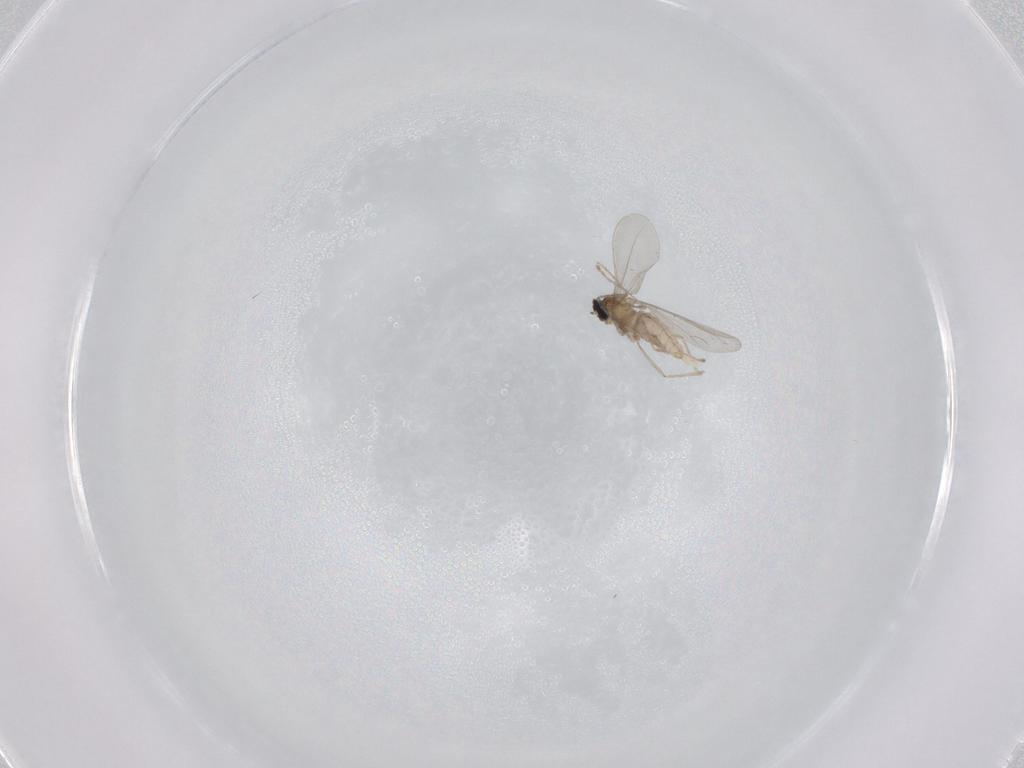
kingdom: Animalia
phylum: Arthropoda
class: Insecta
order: Diptera
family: Cecidomyiidae
